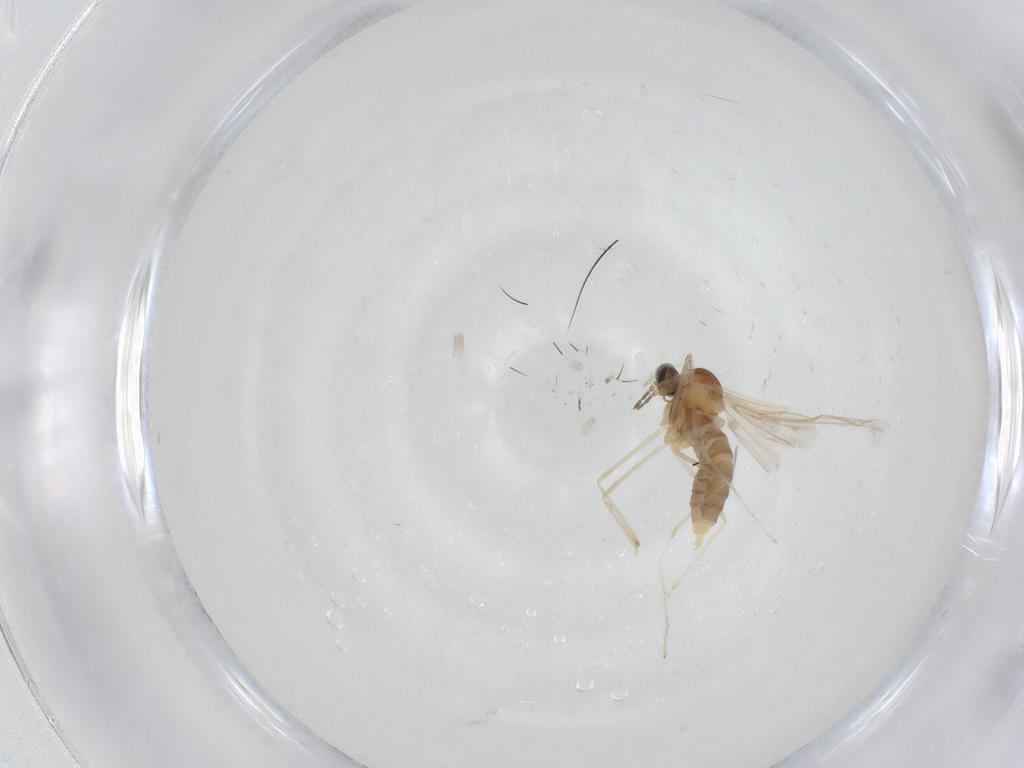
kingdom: Animalia
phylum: Arthropoda
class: Insecta
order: Diptera
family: Cecidomyiidae
